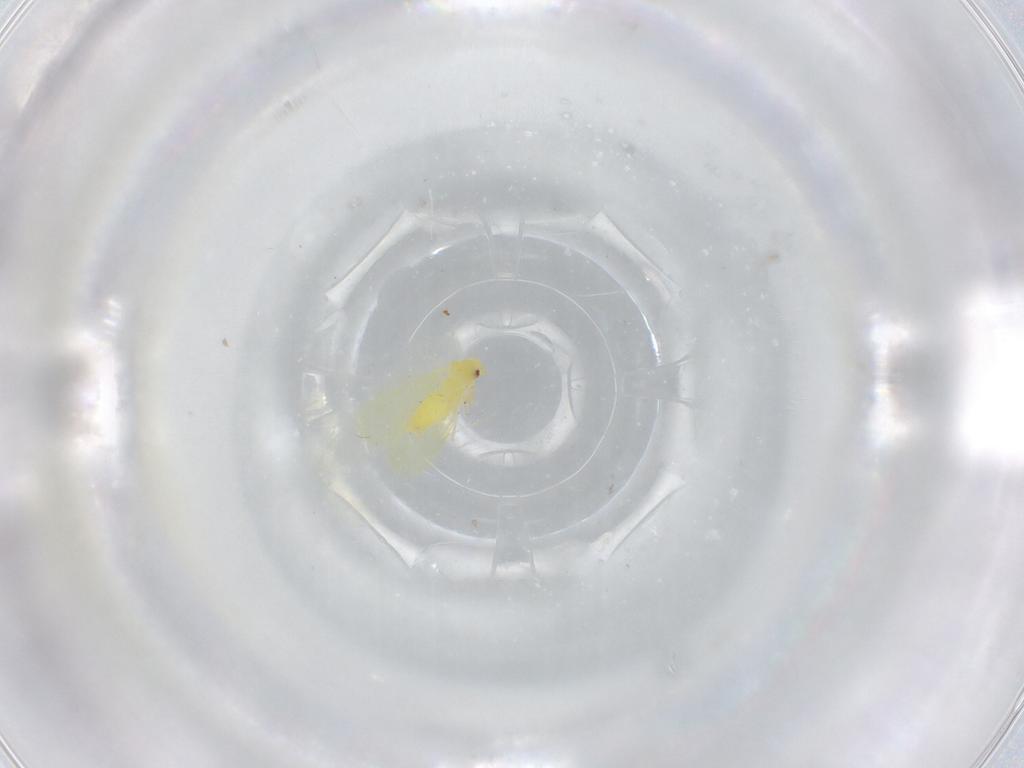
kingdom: Animalia
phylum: Arthropoda
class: Insecta
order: Hemiptera
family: Aleyrodidae
